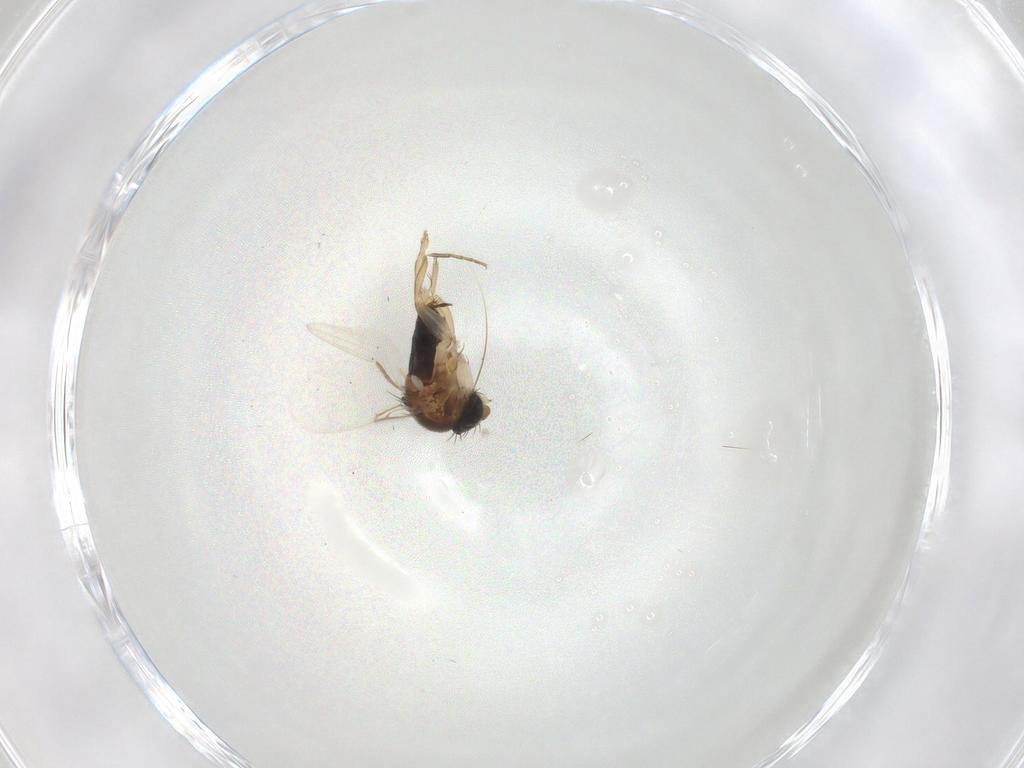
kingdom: Animalia
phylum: Arthropoda
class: Insecta
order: Diptera
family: Phoridae
